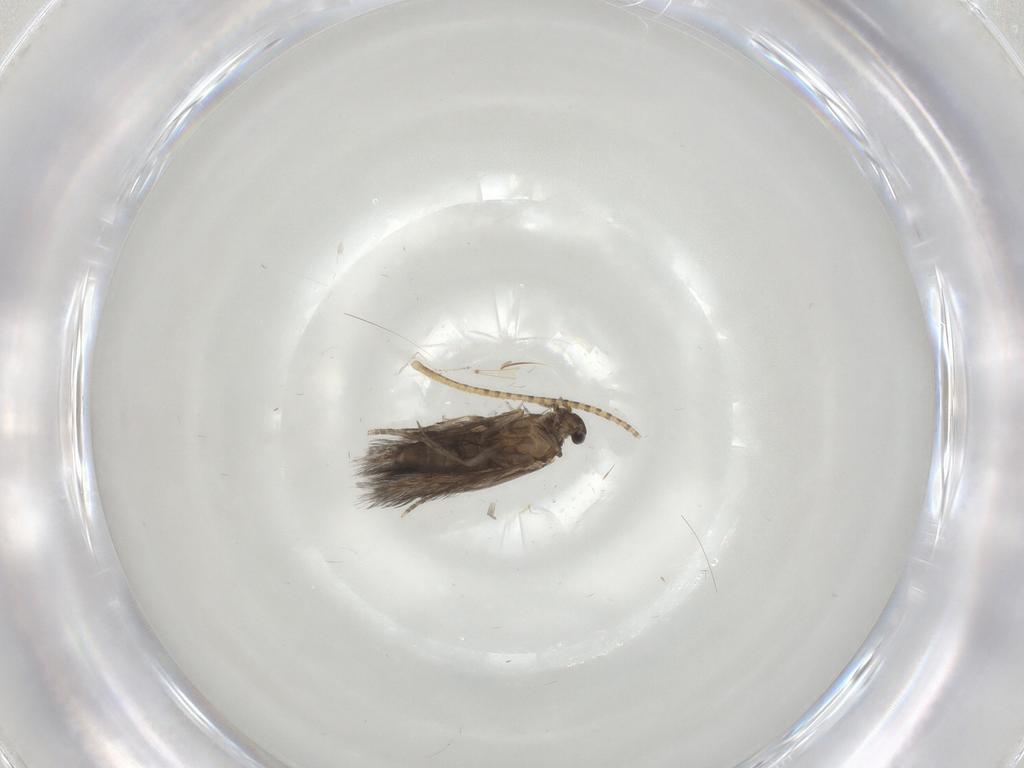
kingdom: Animalia
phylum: Arthropoda
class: Insecta
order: Trichoptera
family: Hydroptilidae
